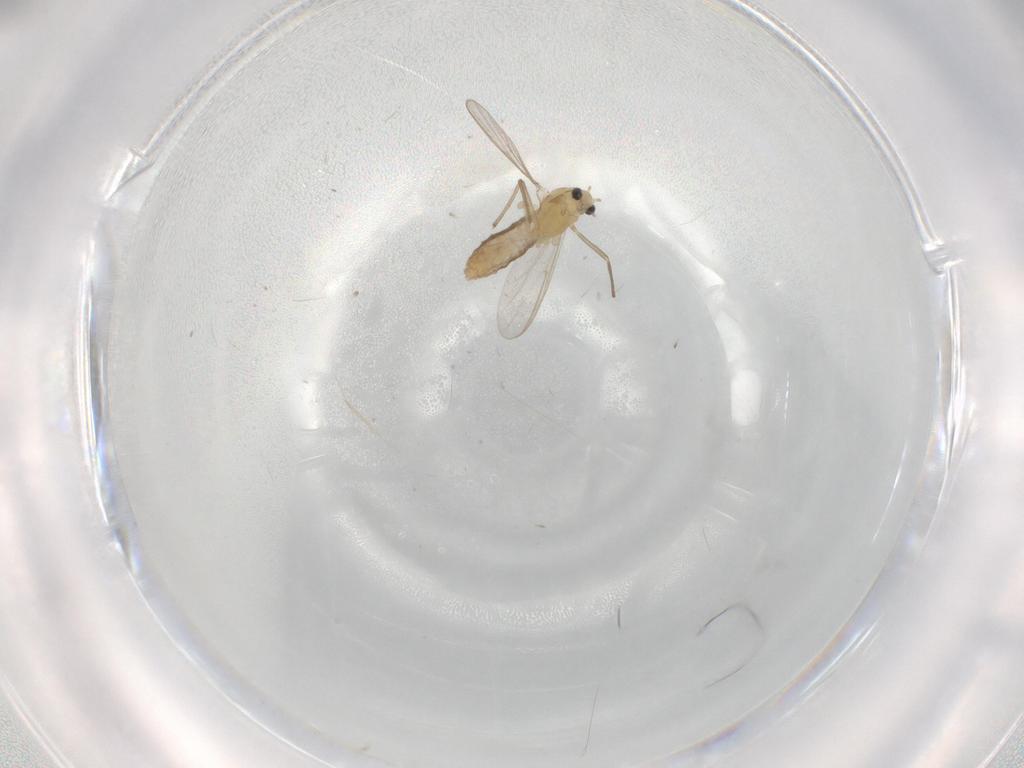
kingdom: Animalia
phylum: Arthropoda
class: Insecta
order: Diptera
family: Chironomidae
